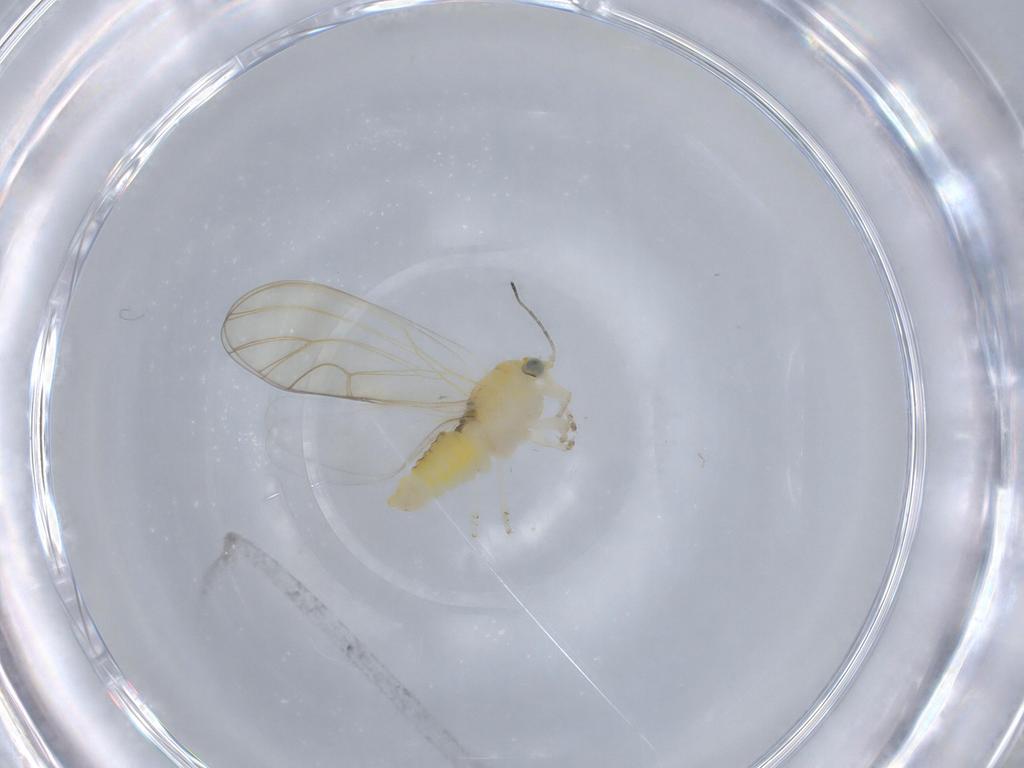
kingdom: Animalia
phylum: Arthropoda
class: Insecta
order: Hemiptera
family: Aphalaridae
